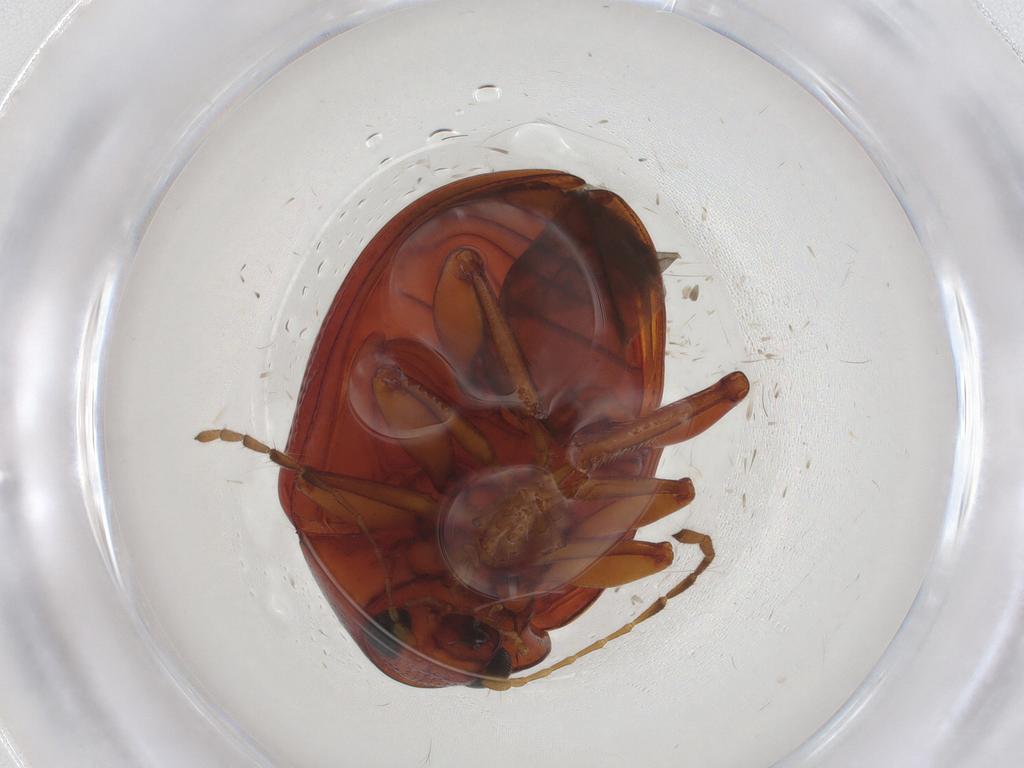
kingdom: Animalia
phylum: Arthropoda
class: Insecta
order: Coleoptera
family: Chrysomelidae
